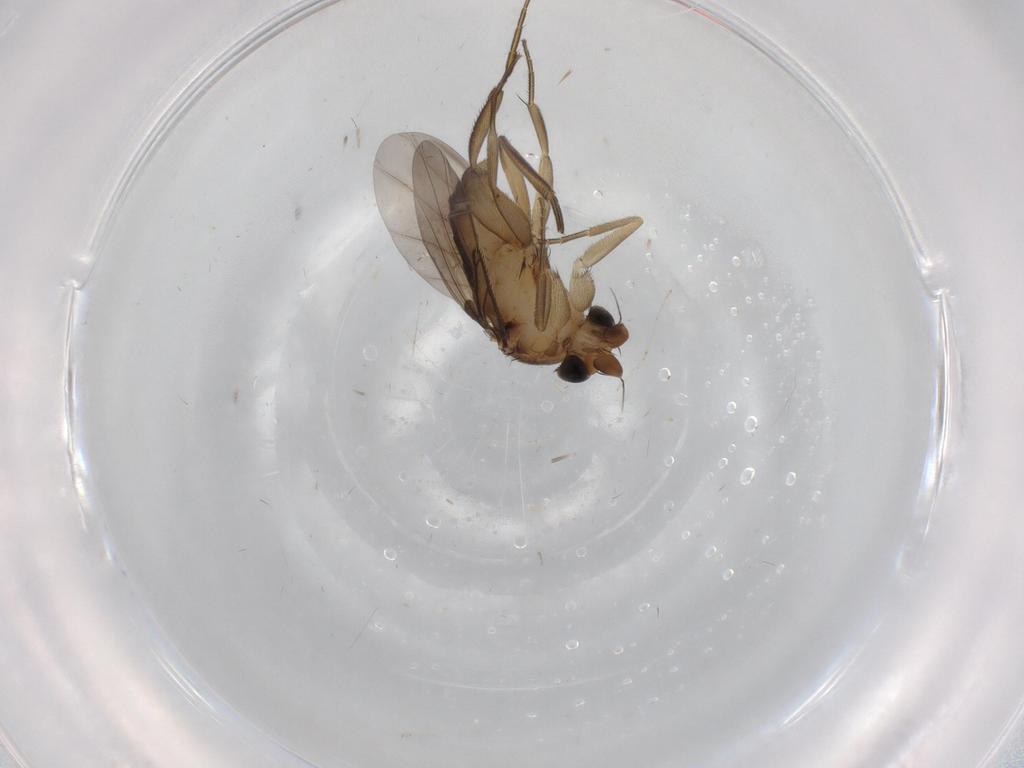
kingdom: Animalia
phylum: Arthropoda
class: Insecta
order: Diptera
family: Phoridae
